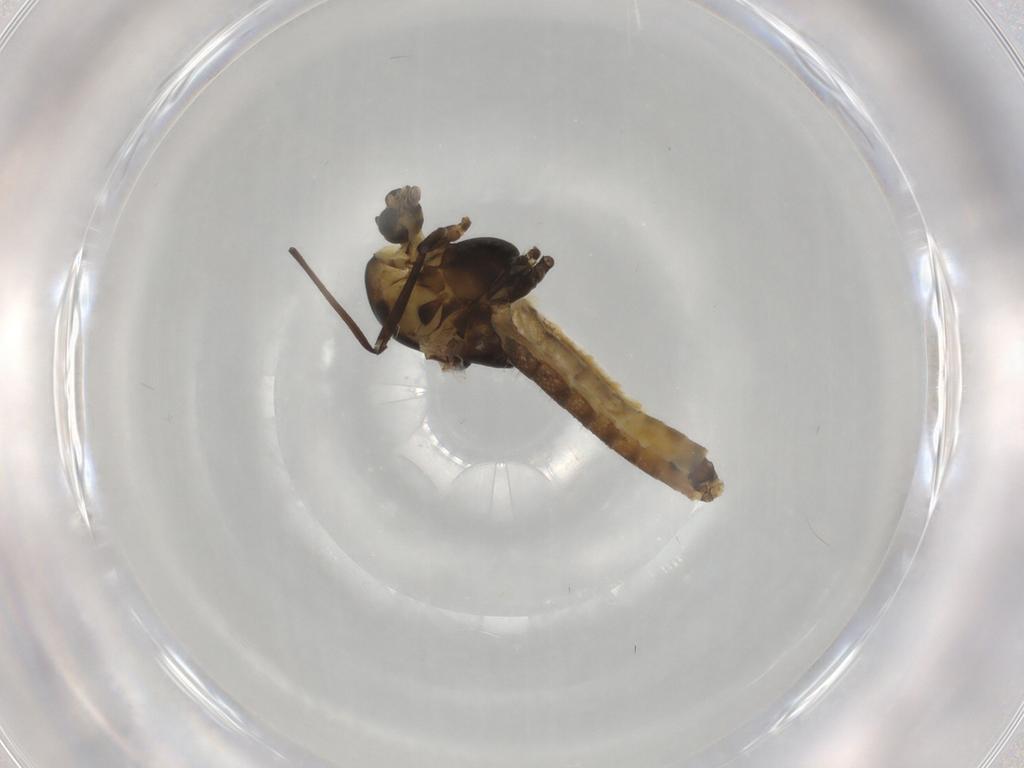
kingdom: Animalia
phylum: Arthropoda
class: Insecta
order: Diptera
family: Chironomidae
